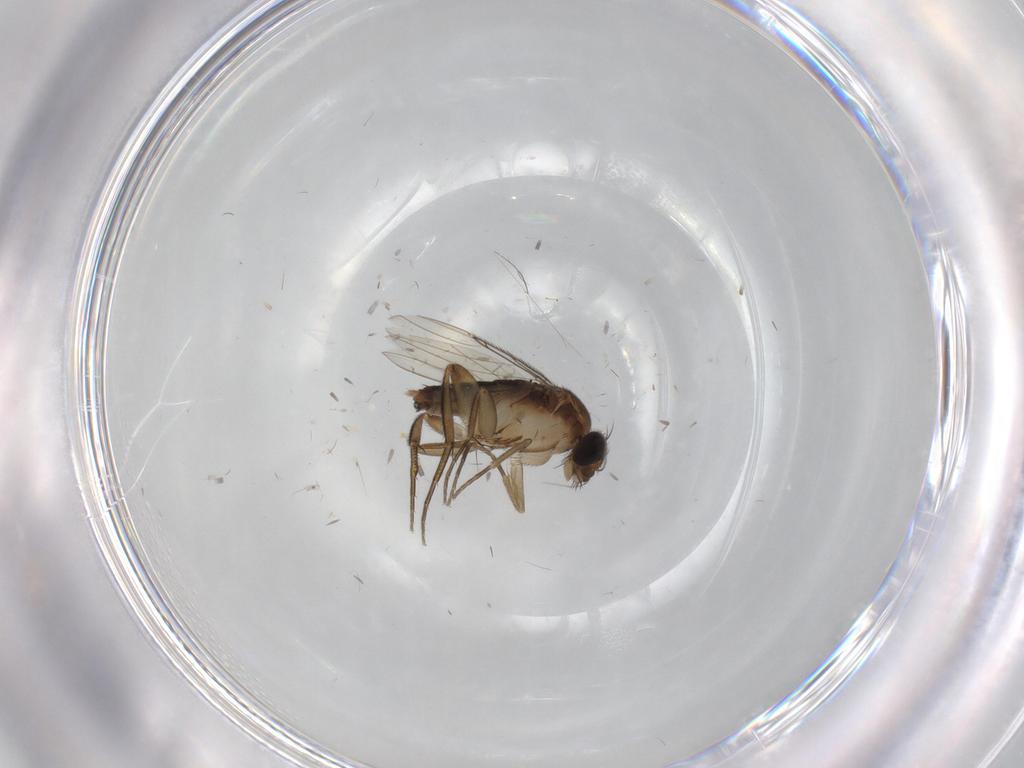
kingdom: Animalia
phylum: Arthropoda
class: Insecta
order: Diptera
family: Phoridae
